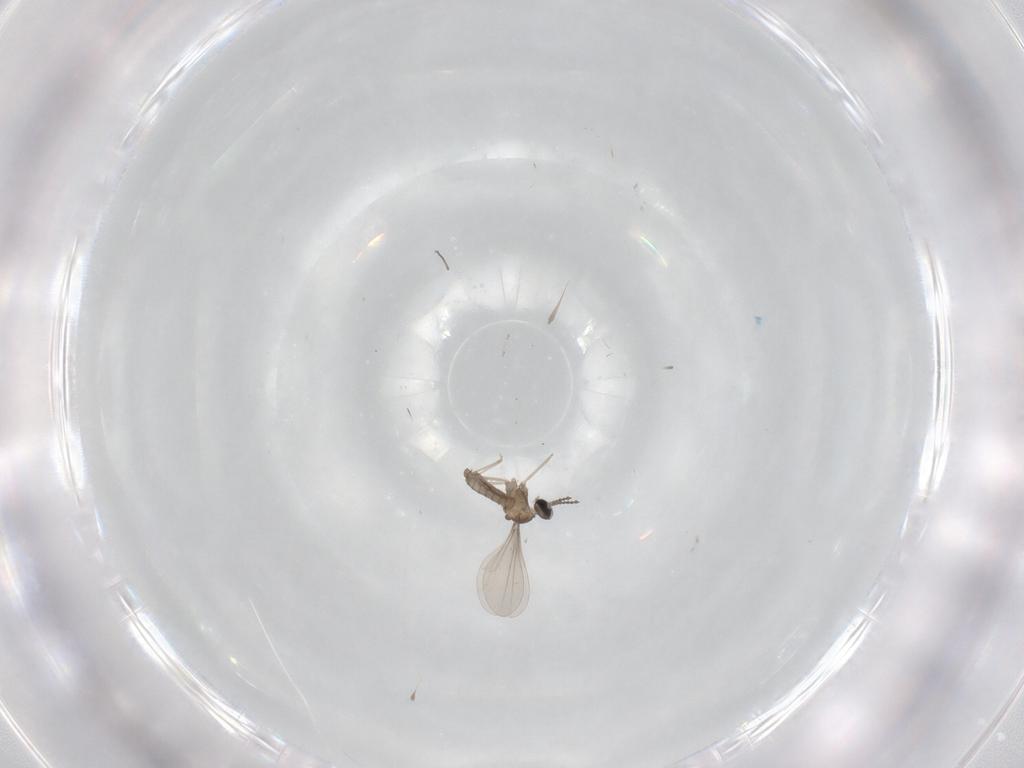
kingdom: Animalia
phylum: Arthropoda
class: Insecta
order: Diptera
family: Sciaridae
